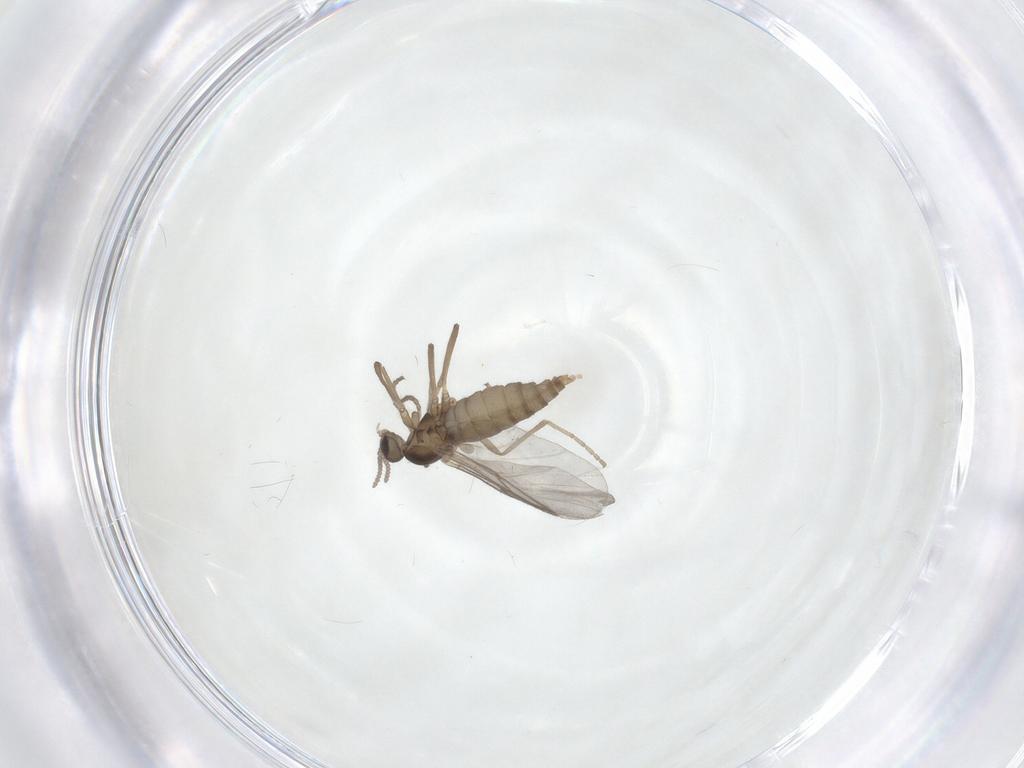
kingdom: Animalia
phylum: Arthropoda
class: Insecta
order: Diptera
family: Cecidomyiidae
